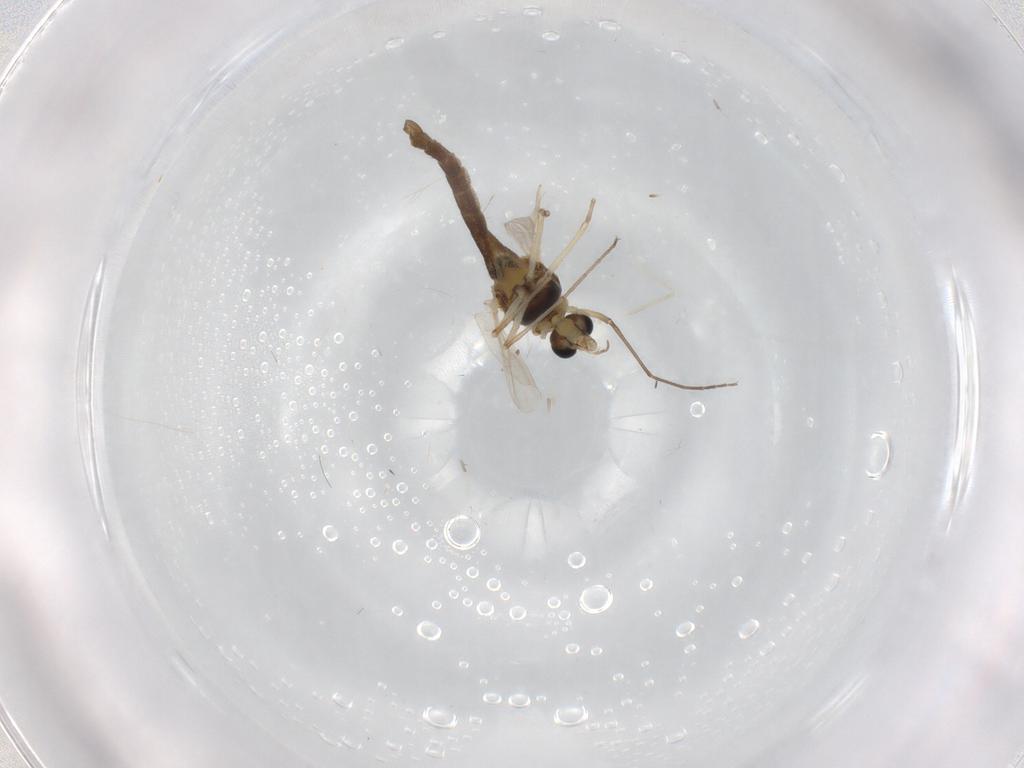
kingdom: Animalia
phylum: Arthropoda
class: Insecta
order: Diptera
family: Chironomidae
